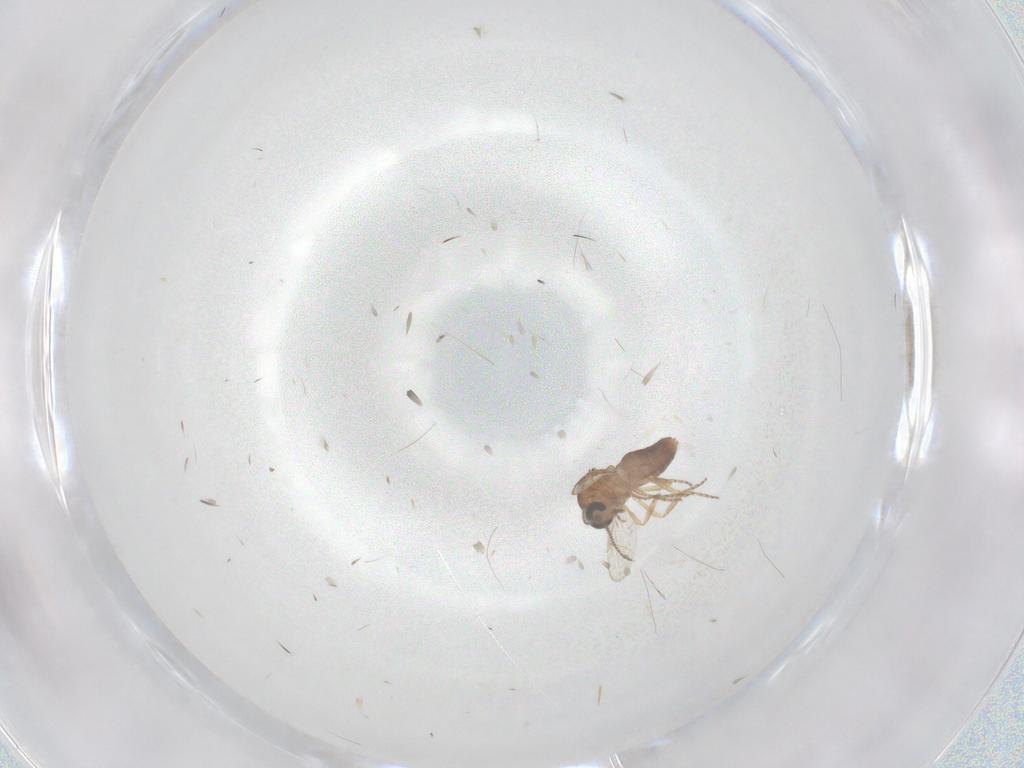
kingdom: Animalia
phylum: Arthropoda
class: Insecta
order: Diptera
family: Ceratopogonidae
